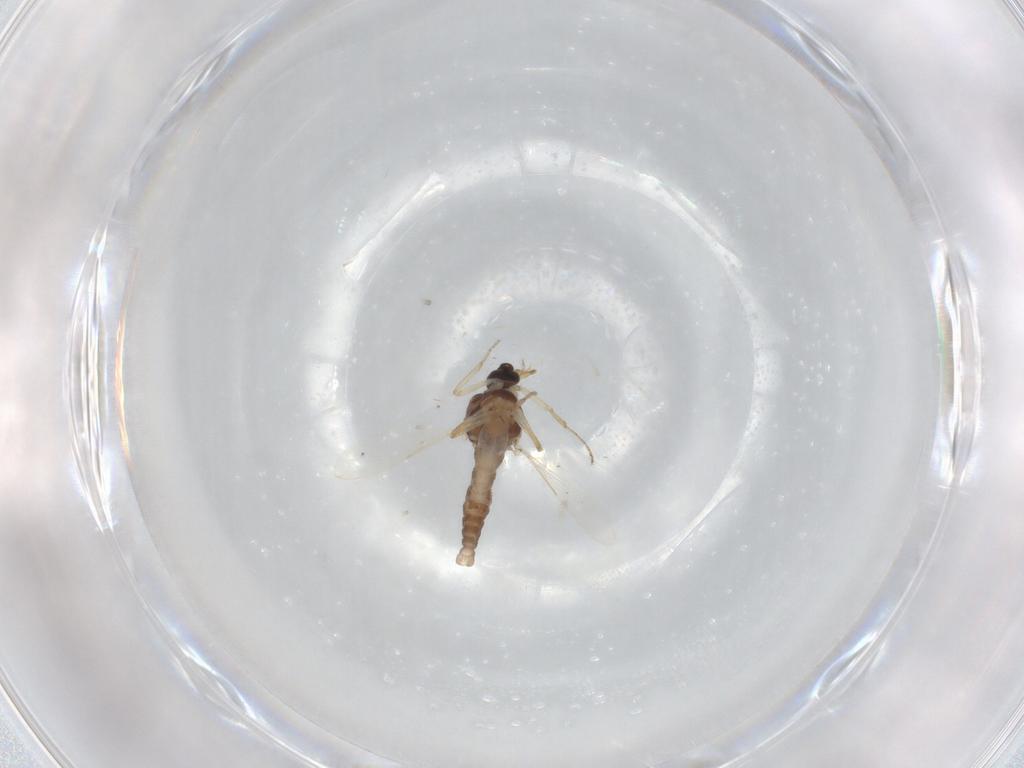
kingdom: Animalia
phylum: Arthropoda
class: Insecta
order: Diptera
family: Ceratopogonidae
